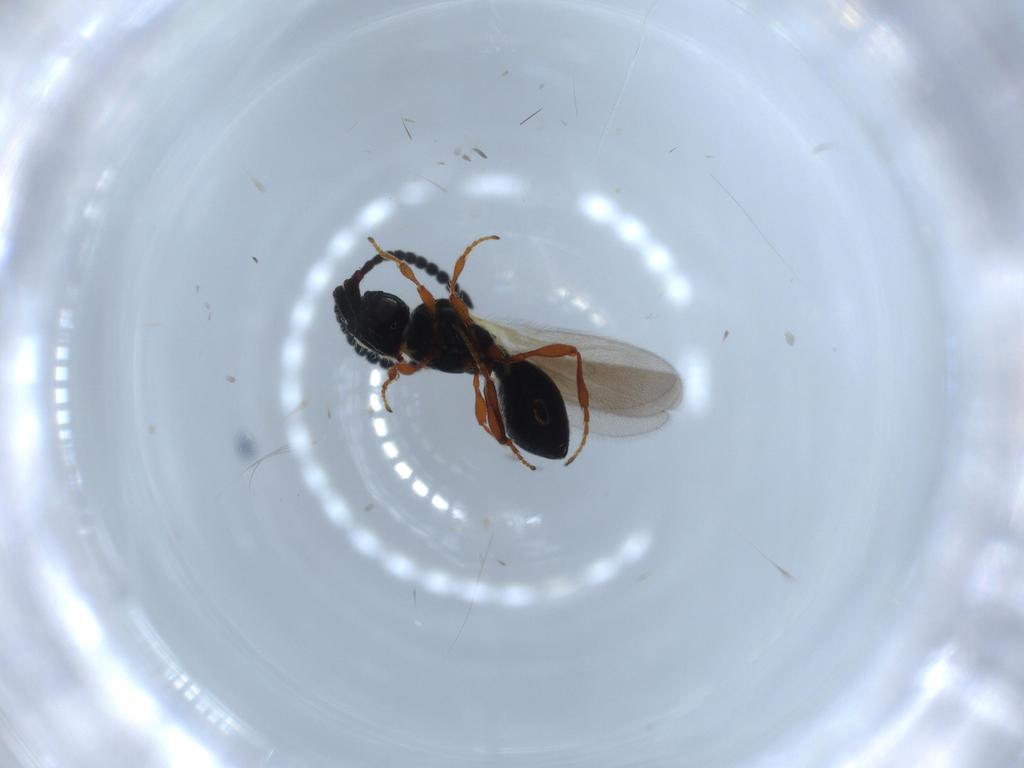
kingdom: Animalia
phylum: Arthropoda
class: Insecta
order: Hymenoptera
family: Diapriidae
